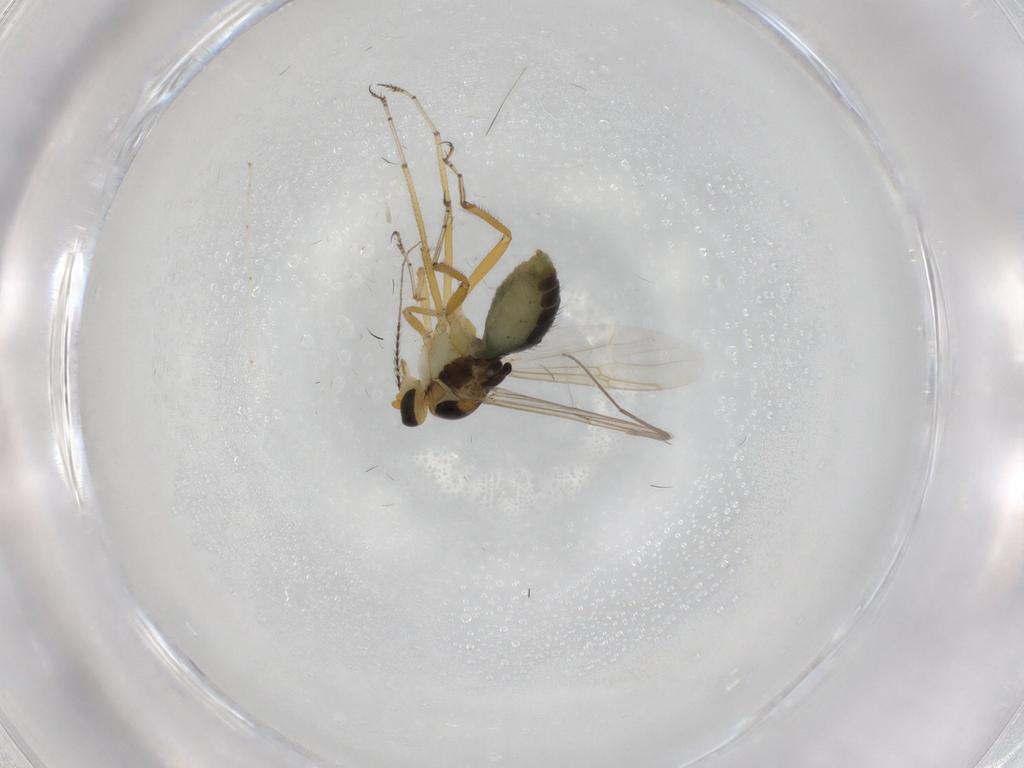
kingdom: Animalia
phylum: Arthropoda
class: Insecta
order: Diptera
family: Ceratopogonidae
